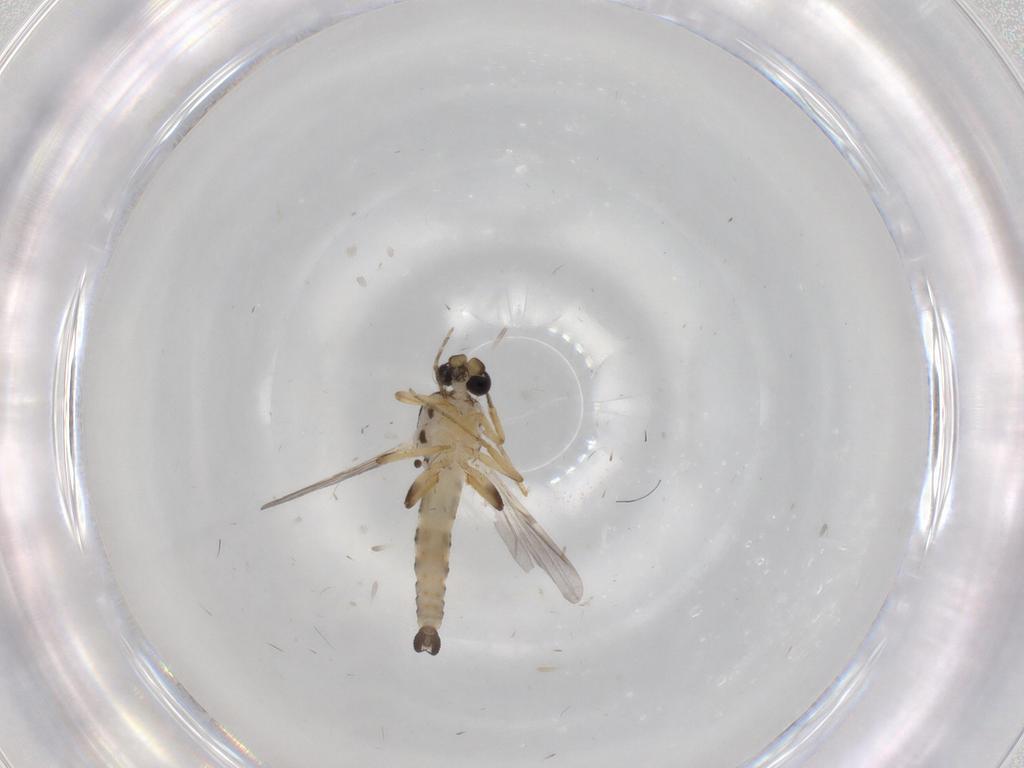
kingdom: Animalia
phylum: Arthropoda
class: Insecta
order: Diptera
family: Ceratopogonidae
